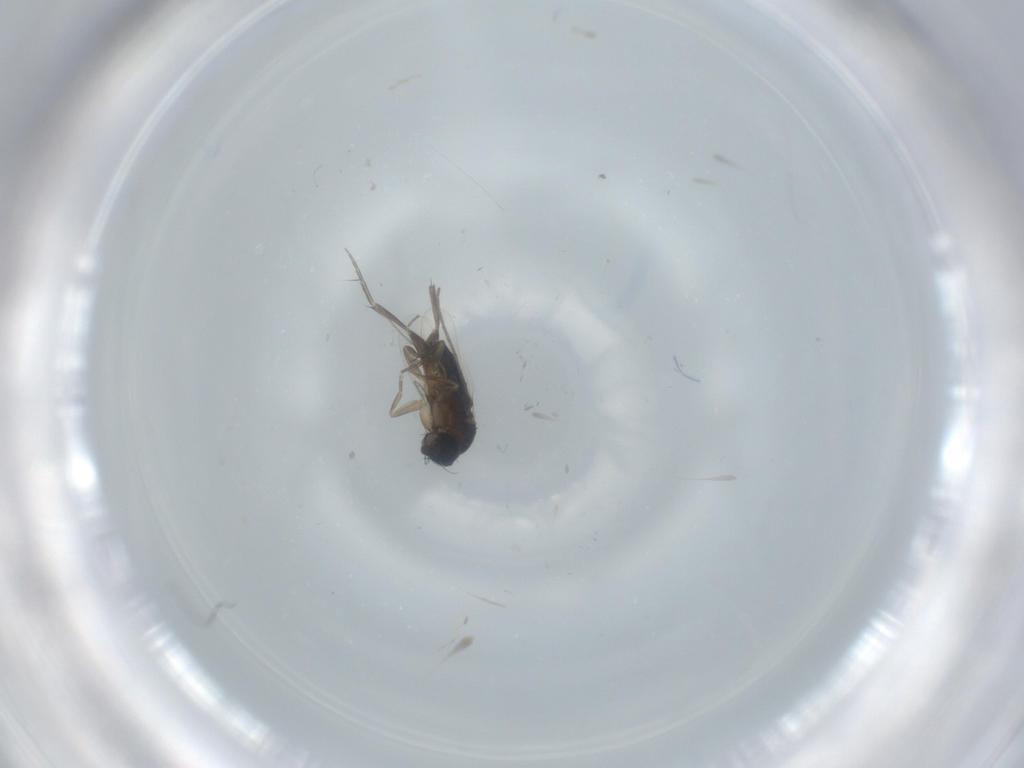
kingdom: Animalia
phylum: Arthropoda
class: Insecta
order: Diptera
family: Phoridae
